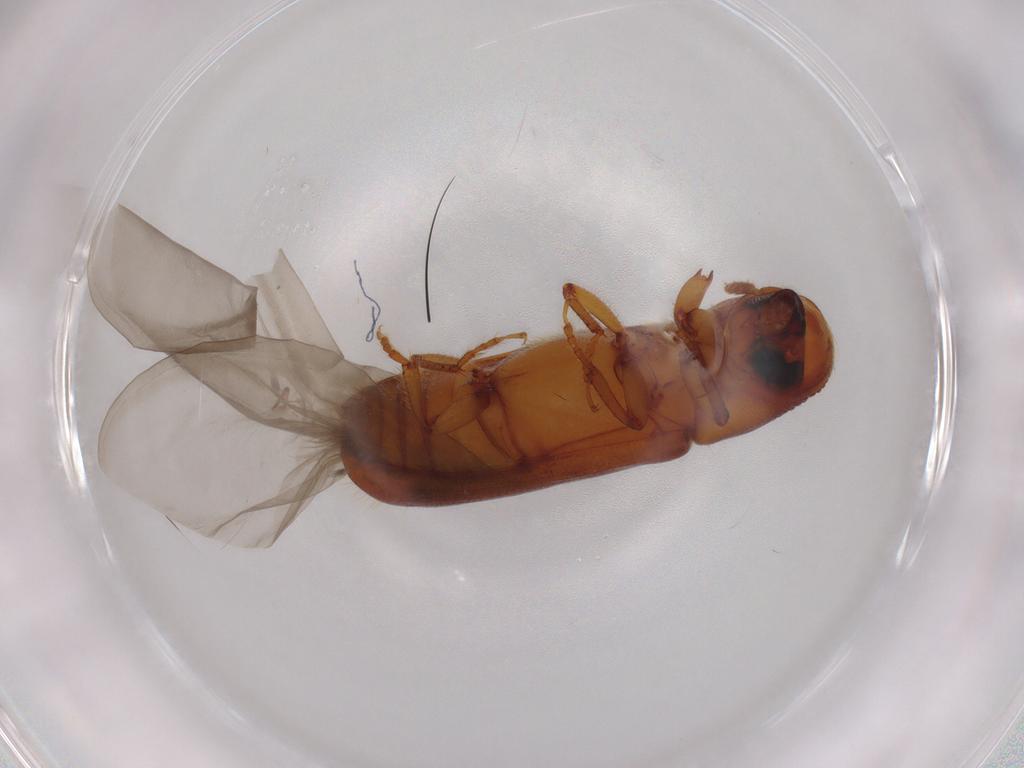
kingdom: Animalia
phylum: Arthropoda
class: Insecta
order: Coleoptera
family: Curculionidae
